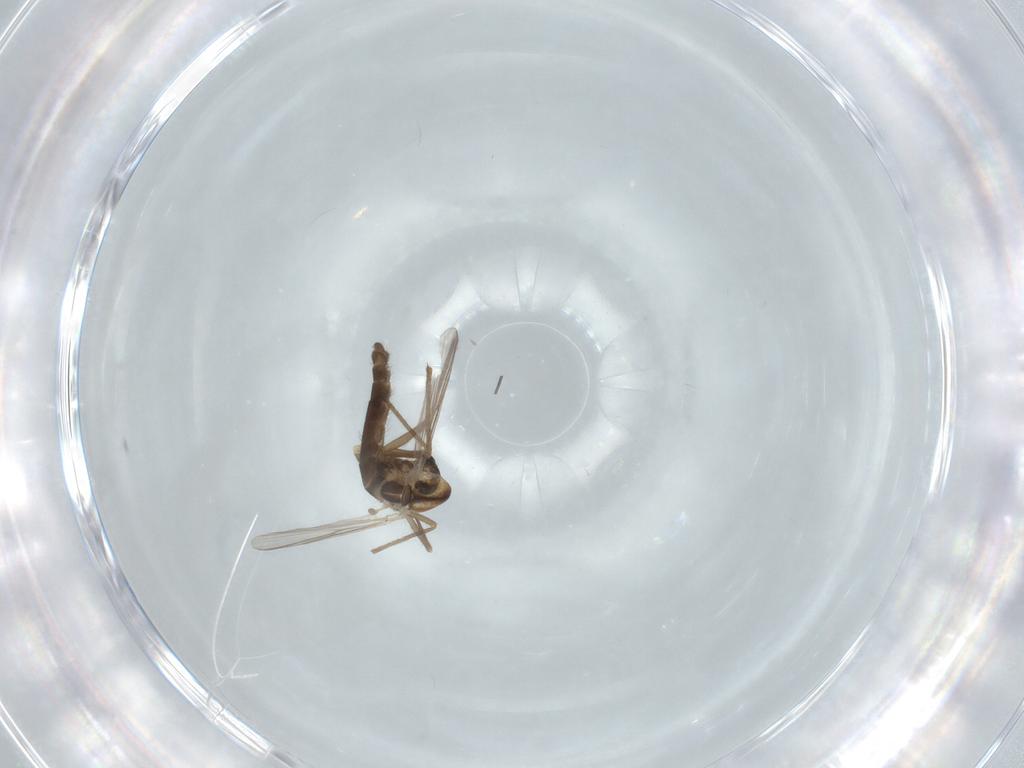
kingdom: Animalia
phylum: Arthropoda
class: Insecta
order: Diptera
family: Chironomidae
